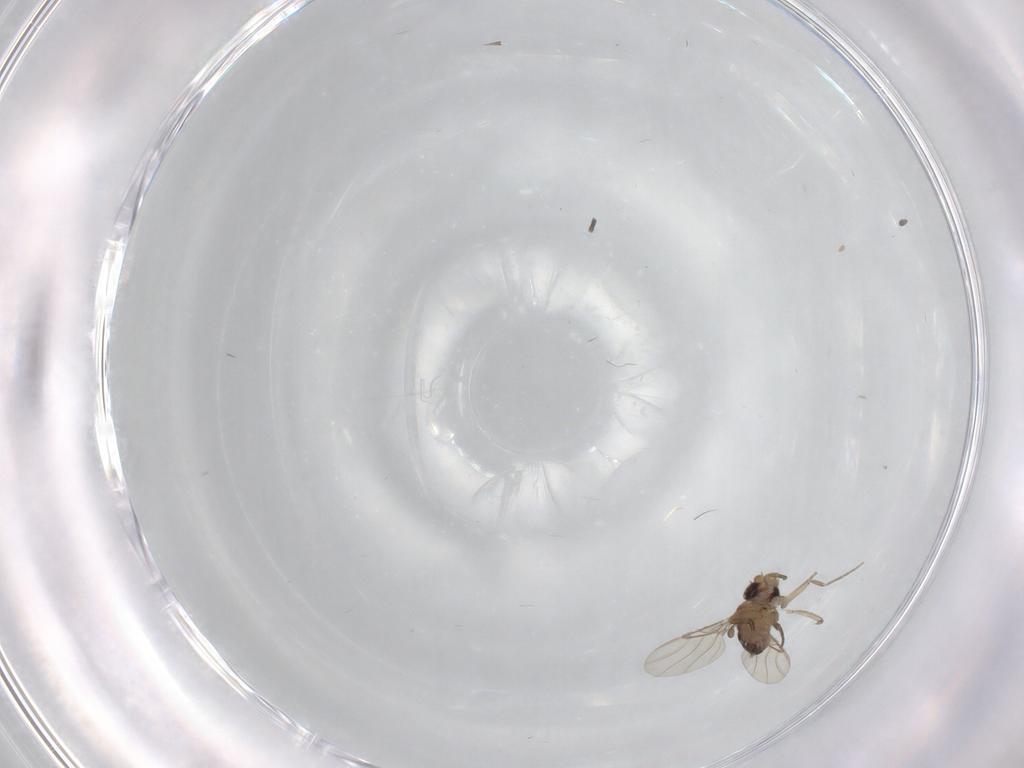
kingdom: Animalia
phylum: Arthropoda
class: Insecta
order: Diptera
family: Phoridae
